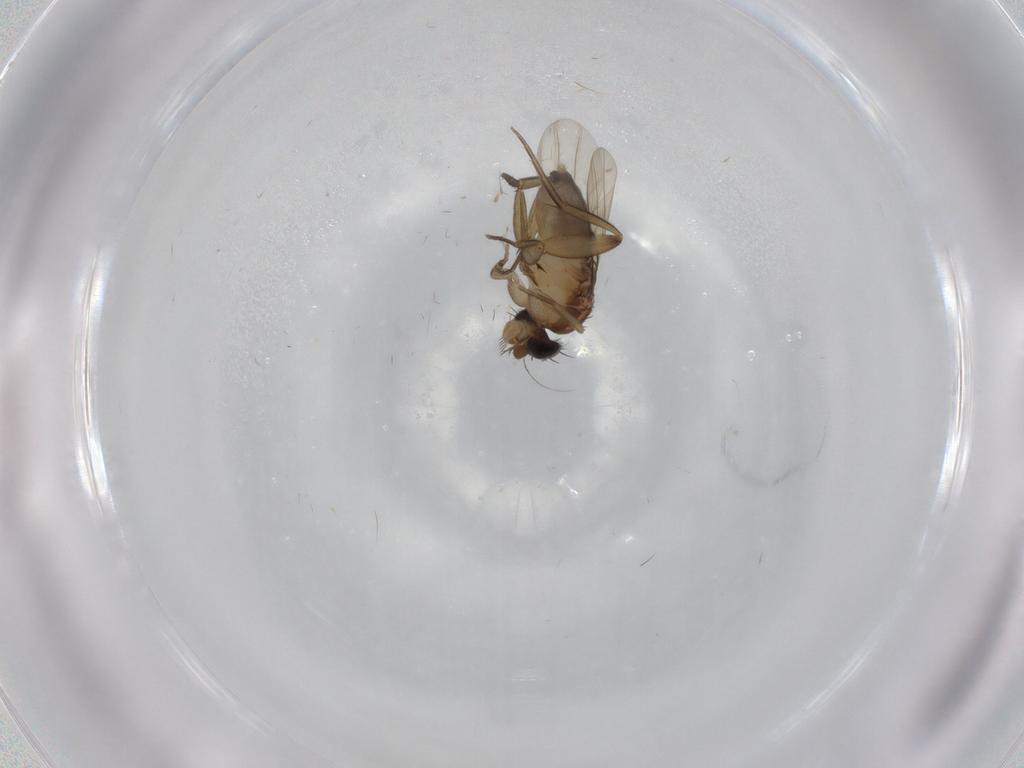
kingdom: Animalia
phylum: Arthropoda
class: Insecta
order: Diptera
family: Phoridae
